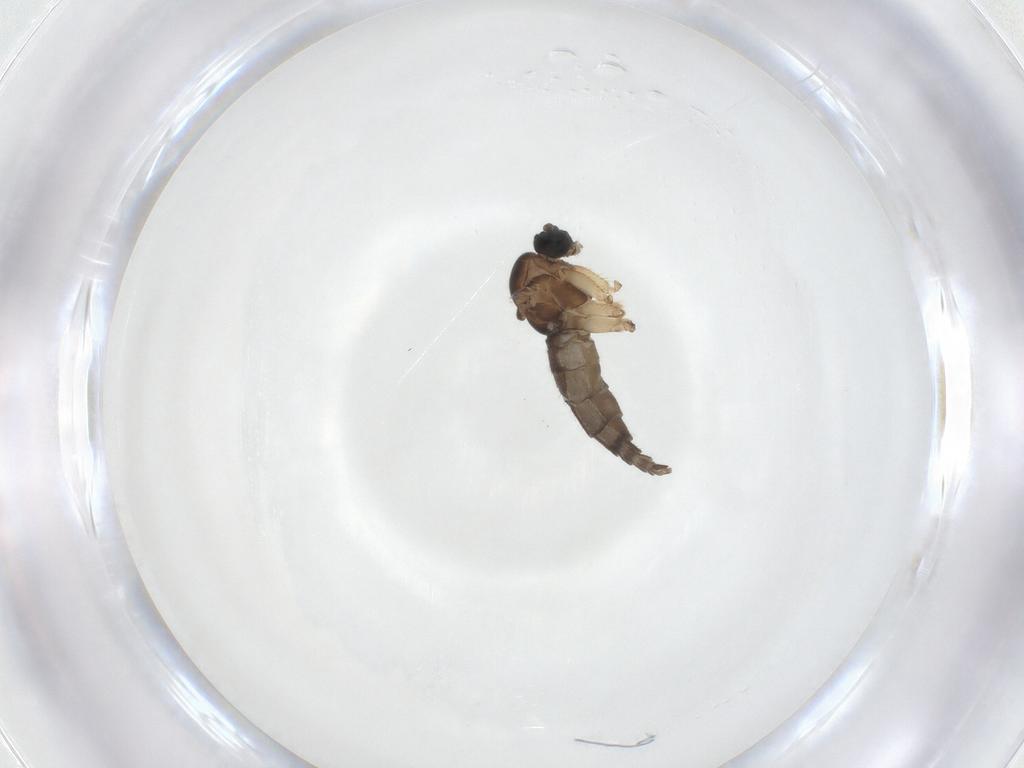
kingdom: Animalia
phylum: Arthropoda
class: Insecta
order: Diptera
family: Sciaridae
